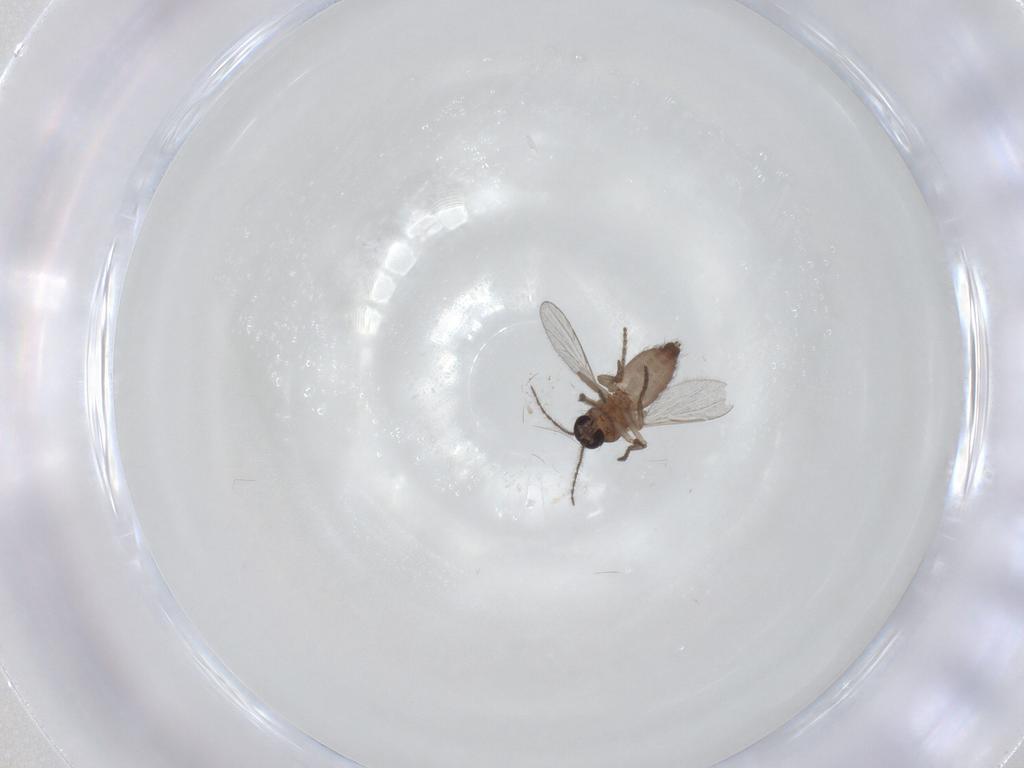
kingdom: Animalia
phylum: Arthropoda
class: Insecta
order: Diptera
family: Ceratopogonidae
